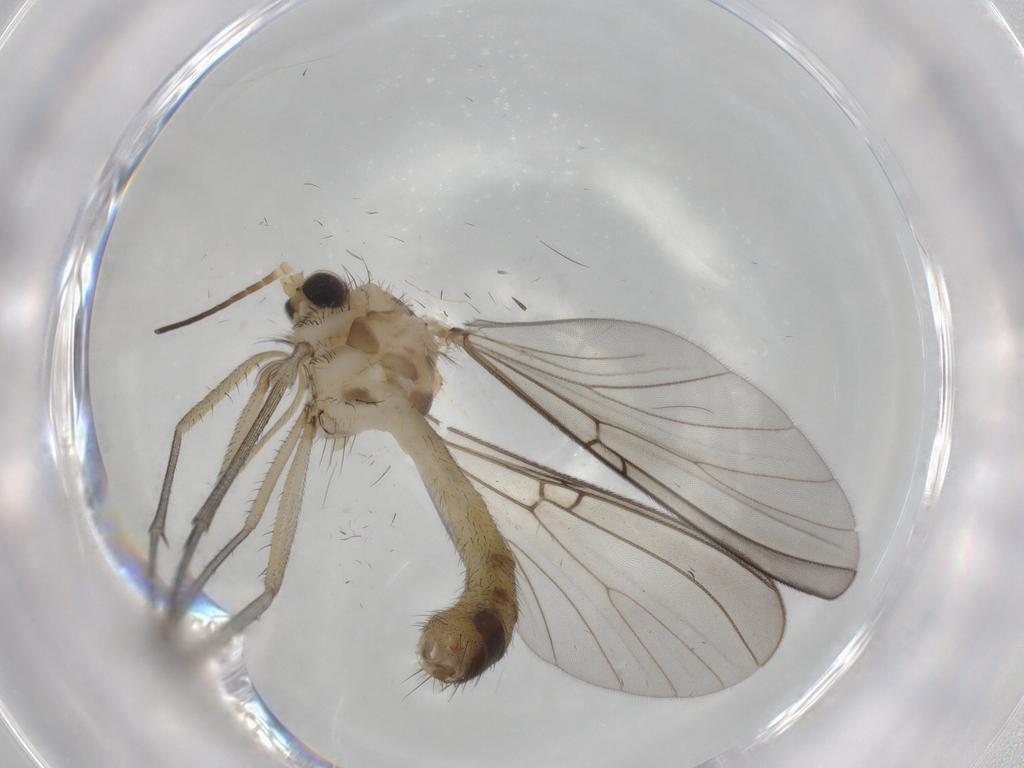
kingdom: Animalia
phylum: Arthropoda
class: Insecta
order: Diptera
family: Mycetophilidae
